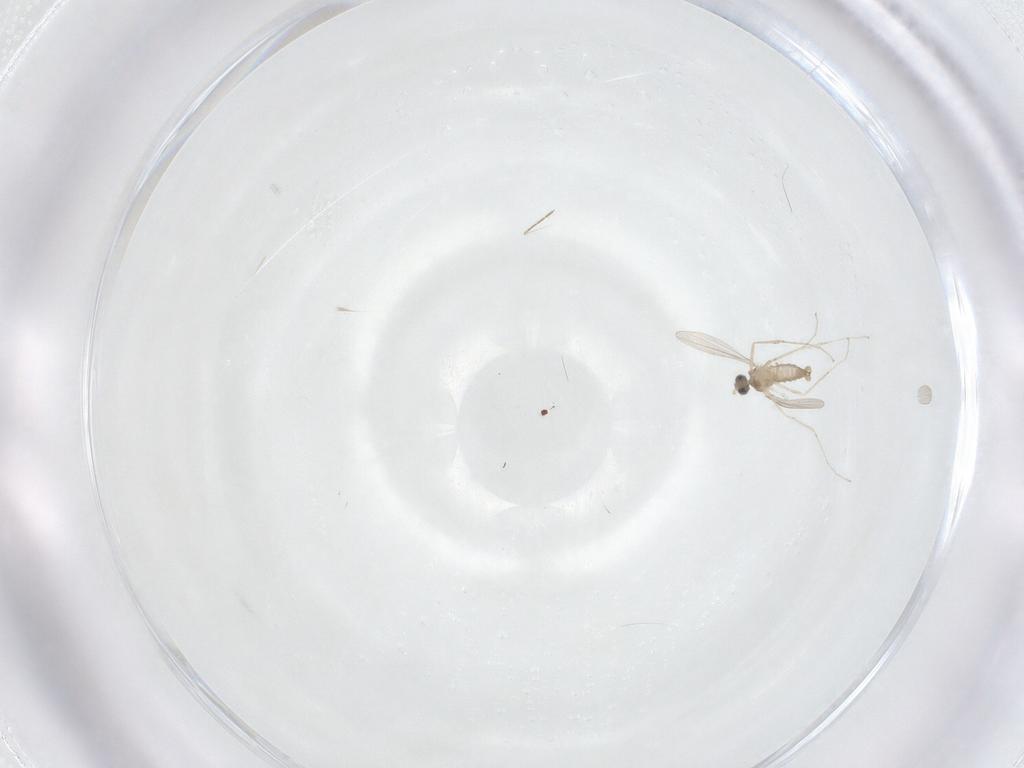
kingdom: Animalia
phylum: Arthropoda
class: Insecta
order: Diptera
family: Ceratopogonidae
